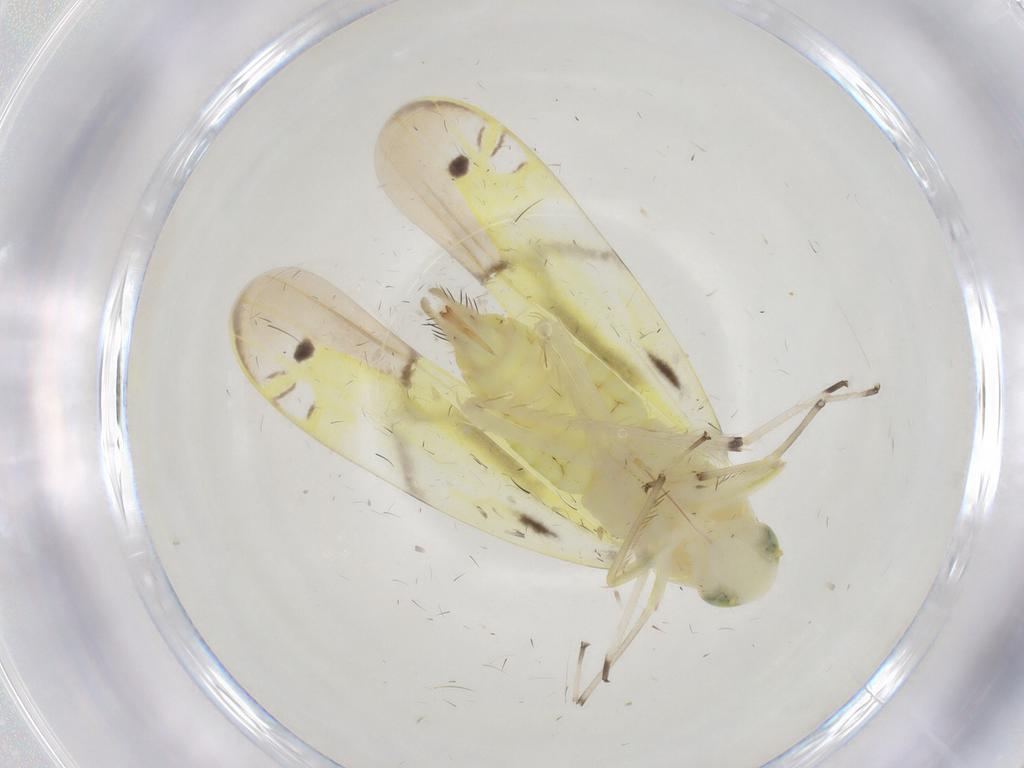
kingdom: Animalia
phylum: Arthropoda
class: Insecta
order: Hemiptera
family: Cicadellidae
